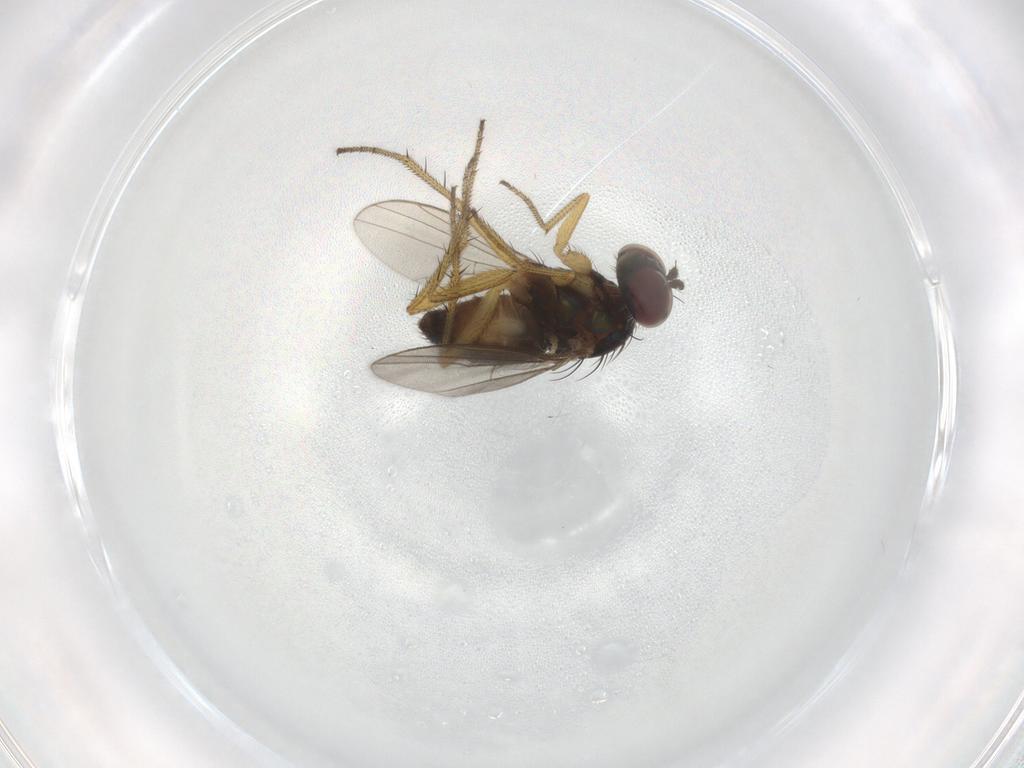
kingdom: Animalia
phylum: Arthropoda
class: Insecta
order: Diptera
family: Dolichopodidae
